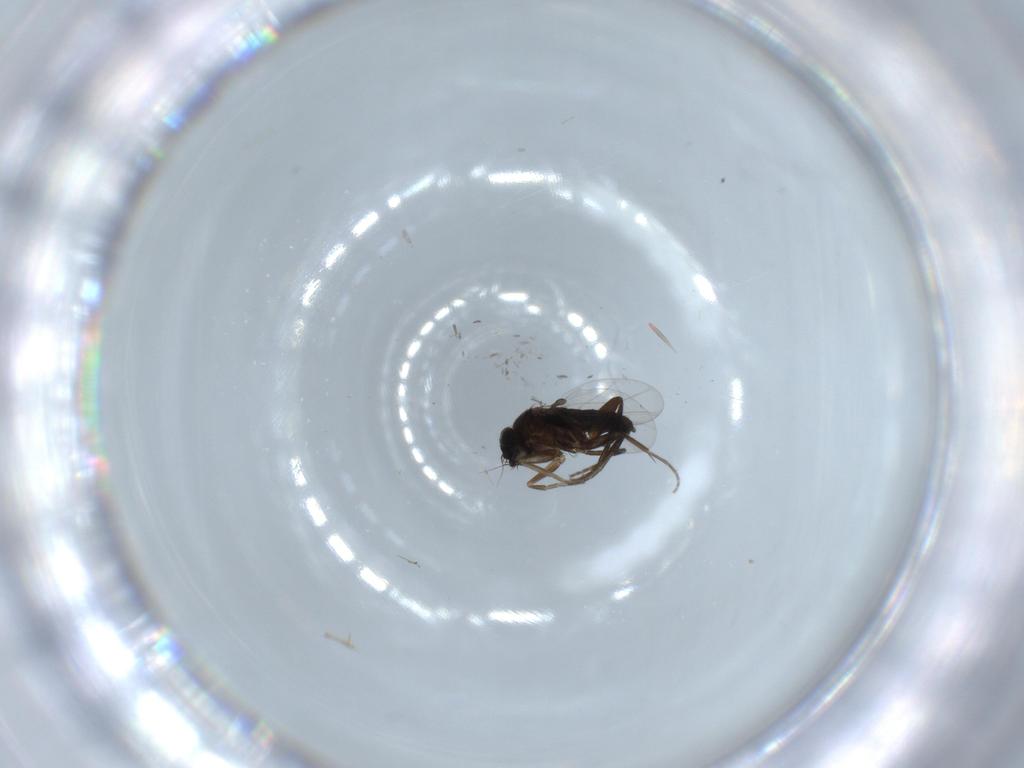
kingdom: Animalia
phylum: Arthropoda
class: Insecta
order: Diptera
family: Phoridae
